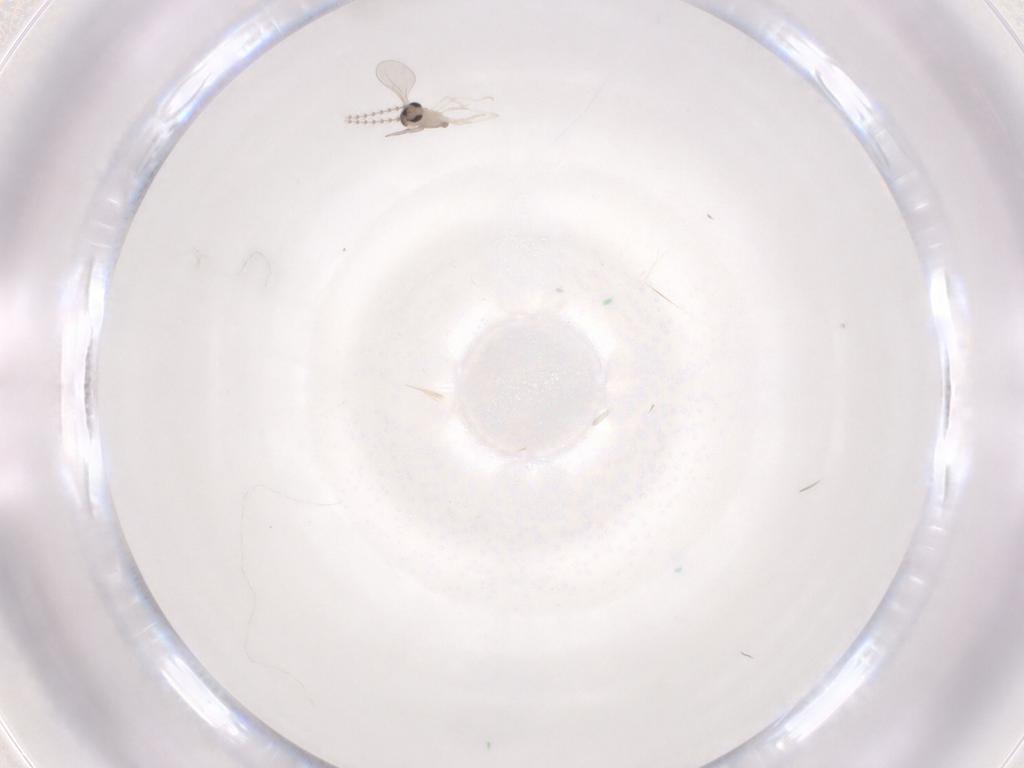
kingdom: Animalia
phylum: Arthropoda
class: Insecta
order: Diptera
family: Cecidomyiidae
